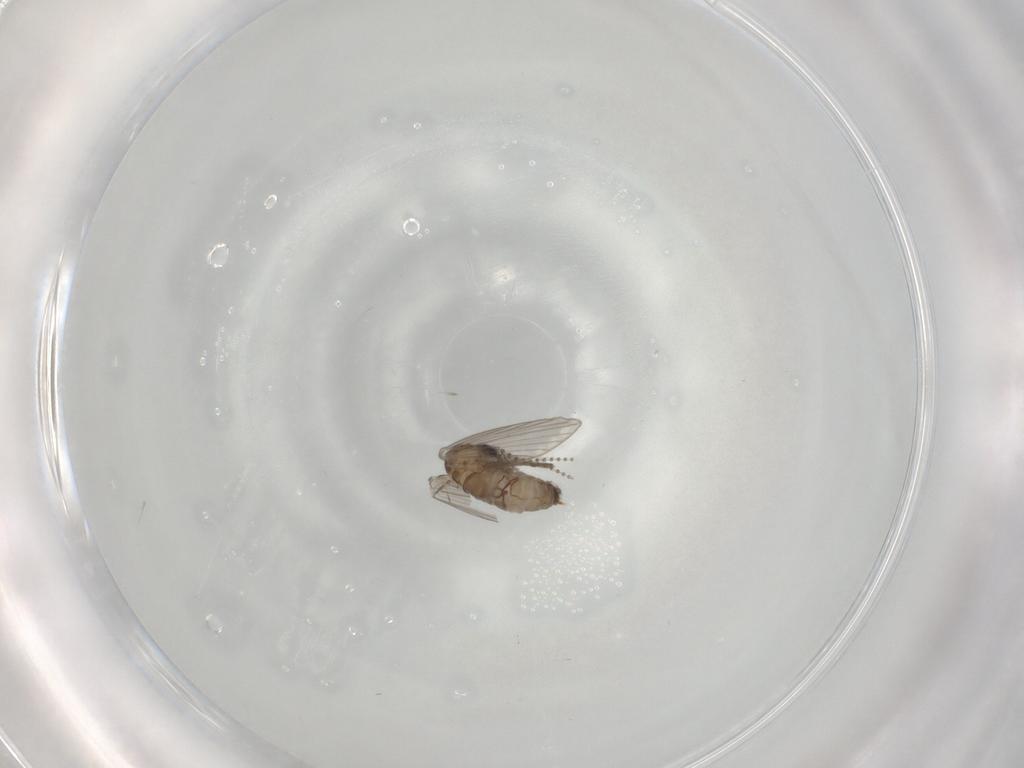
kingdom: Animalia
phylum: Arthropoda
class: Insecta
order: Diptera
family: Psychodidae
